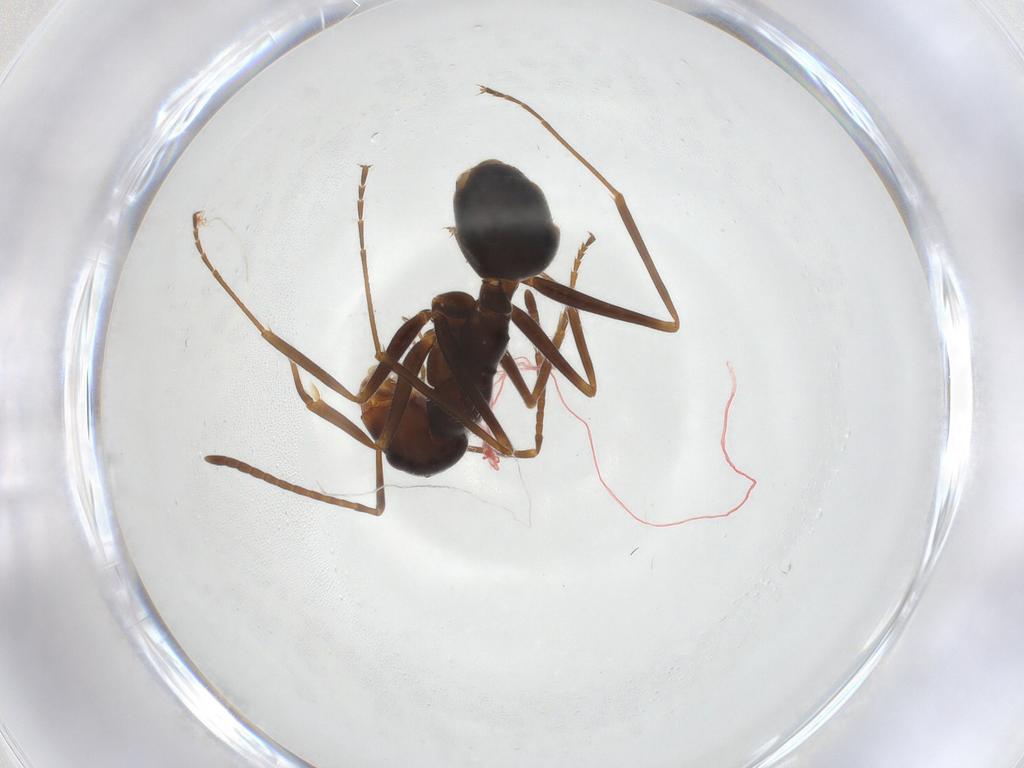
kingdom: Animalia
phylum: Arthropoda
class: Insecta
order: Hymenoptera
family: Formicidae
